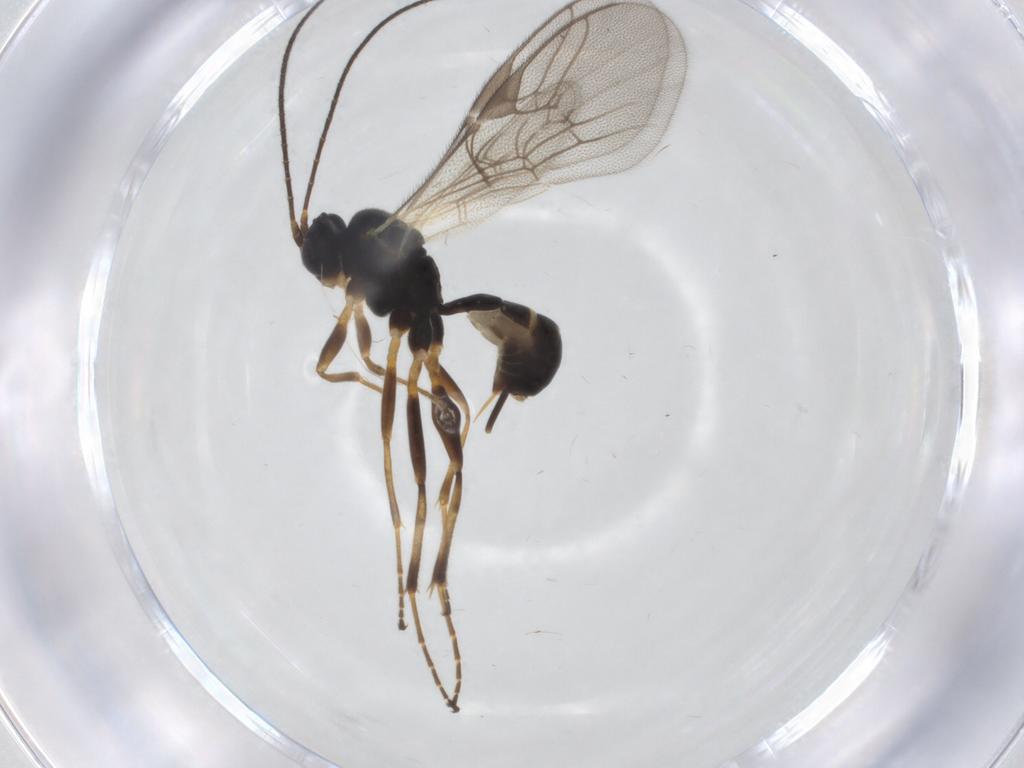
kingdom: Animalia
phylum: Arthropoda
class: Insecta
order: Hymenoptera
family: Ichneumonidae
